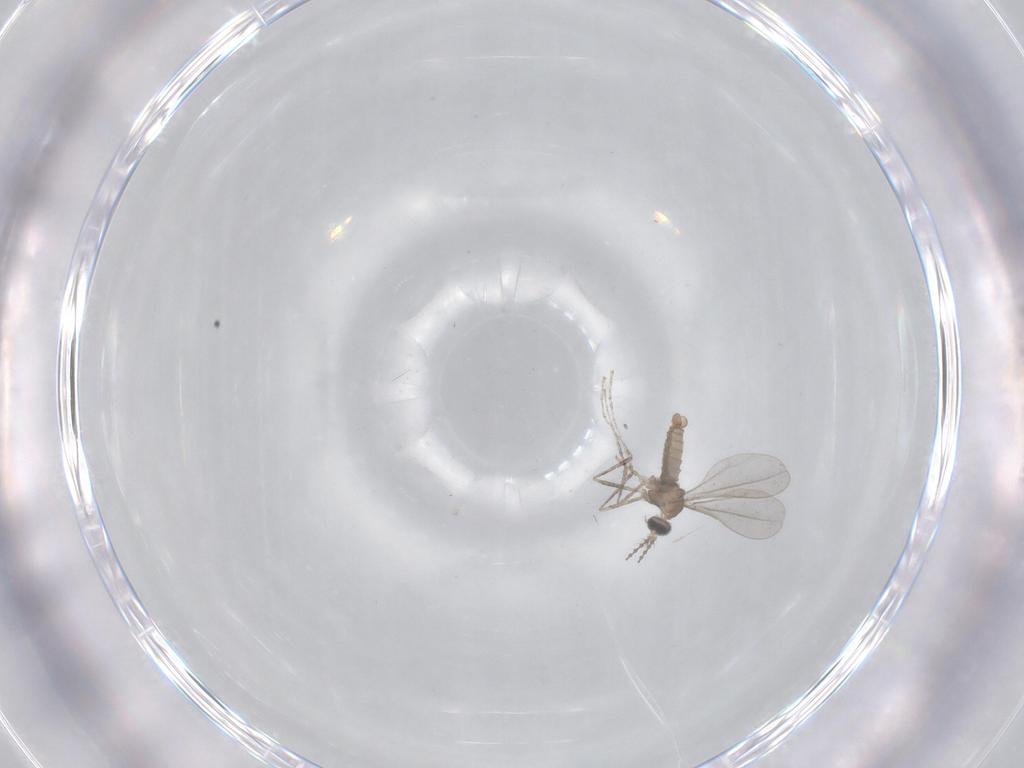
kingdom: Animalia
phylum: Arthropoda
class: Insecta
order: Diptera
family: Cecidomyiidae
